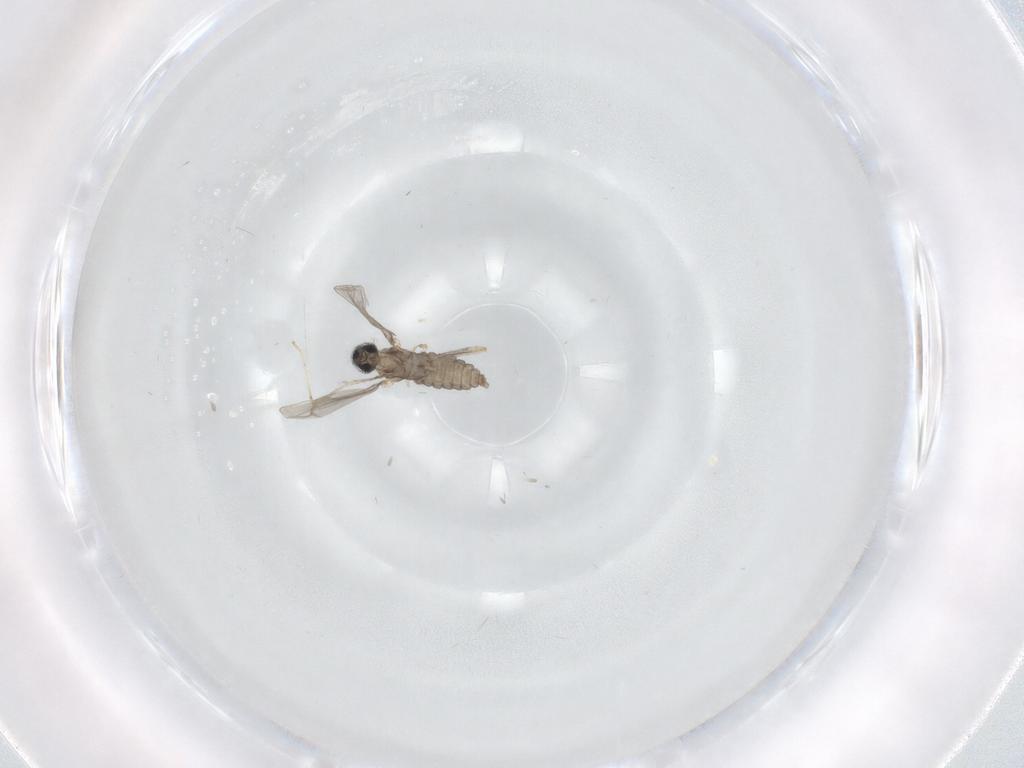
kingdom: Animalia
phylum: Arthropoda
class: Insecta
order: Diptera
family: Cecidomyiidae
